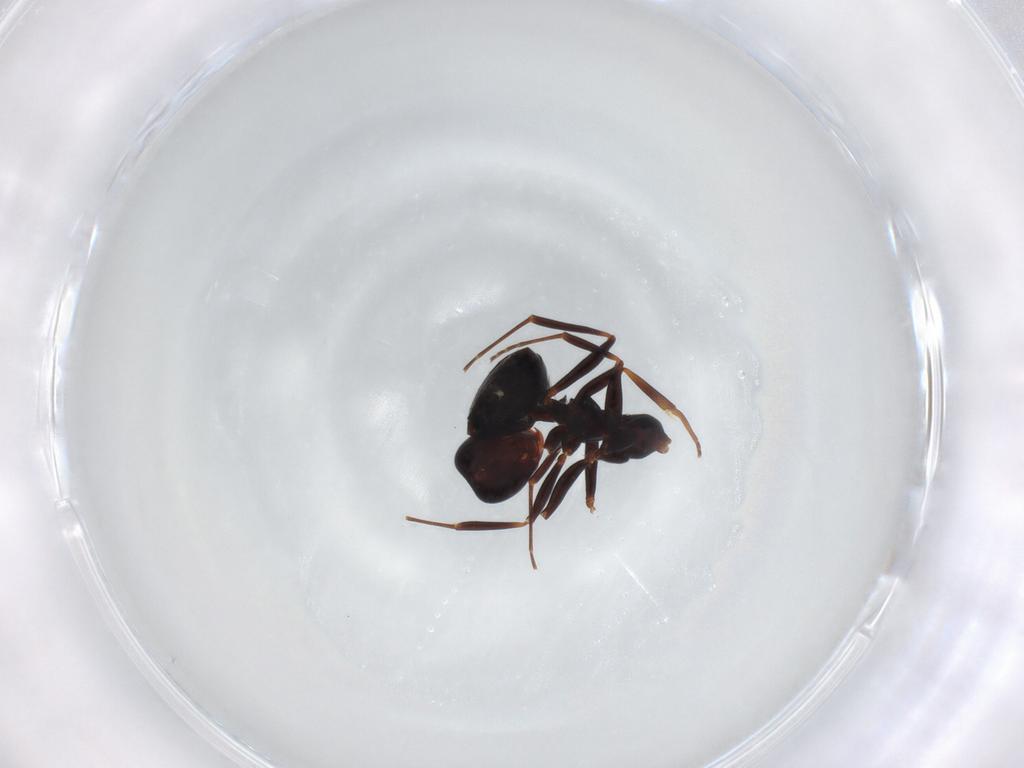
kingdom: Animalia
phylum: Arthropoda
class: Insecta
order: Hymenoptera
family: Formicidae
